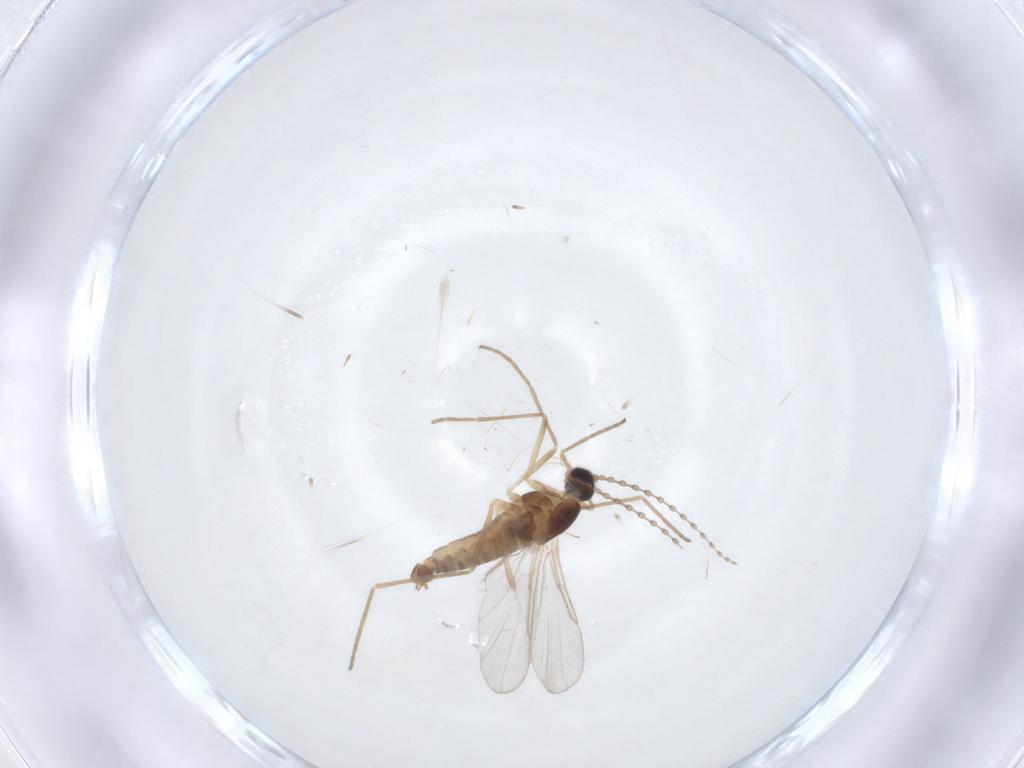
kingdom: Animalia
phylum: Arthropoda
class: Insecta
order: Diptera
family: Cecidomyiidae
